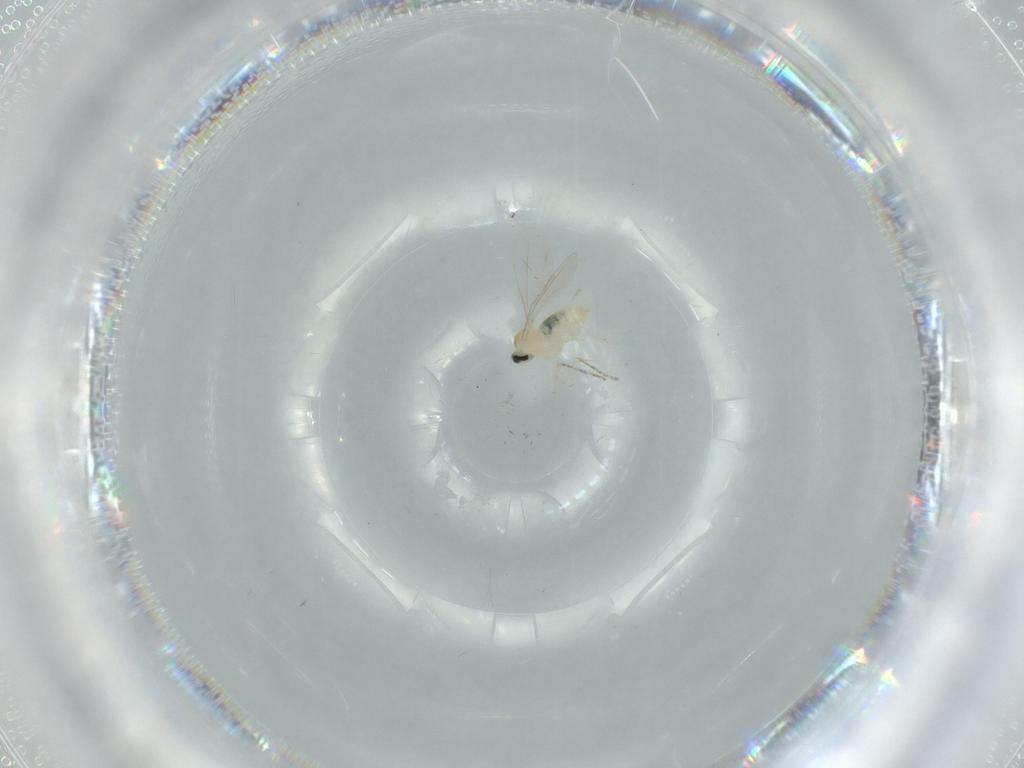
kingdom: Animalia
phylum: Arthropoda
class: Insecta
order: Diptera
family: Cecidomyiidae
